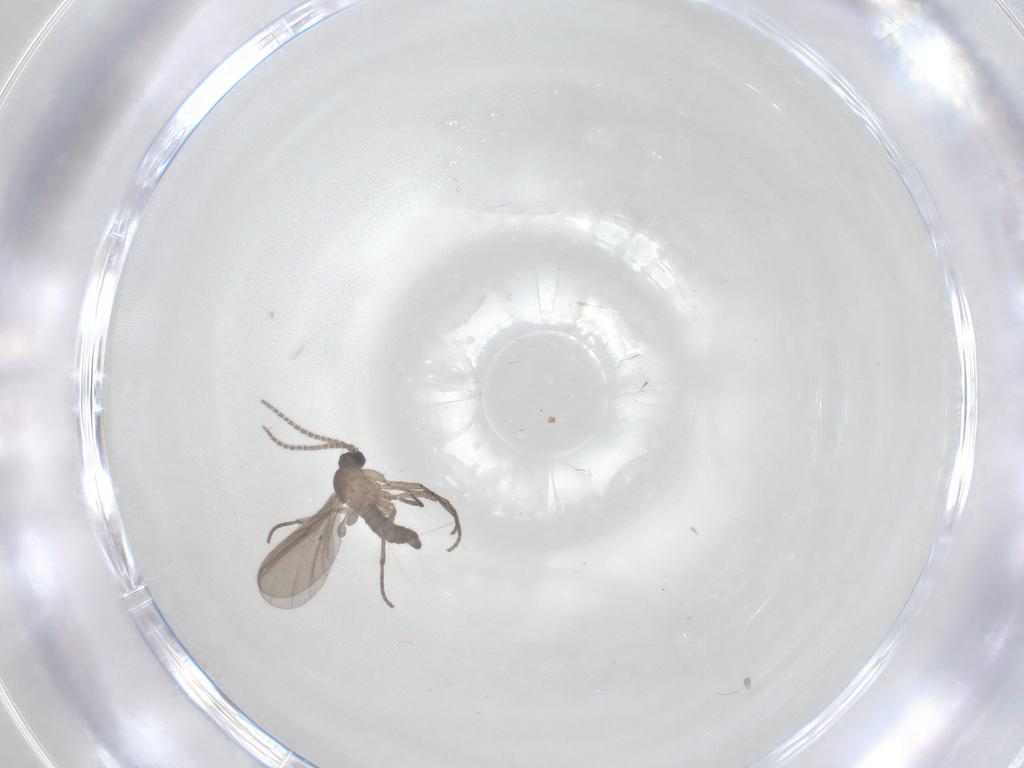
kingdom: Animalia
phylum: Arthropoda
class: Insecta
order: Diptera
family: Sciaridae
